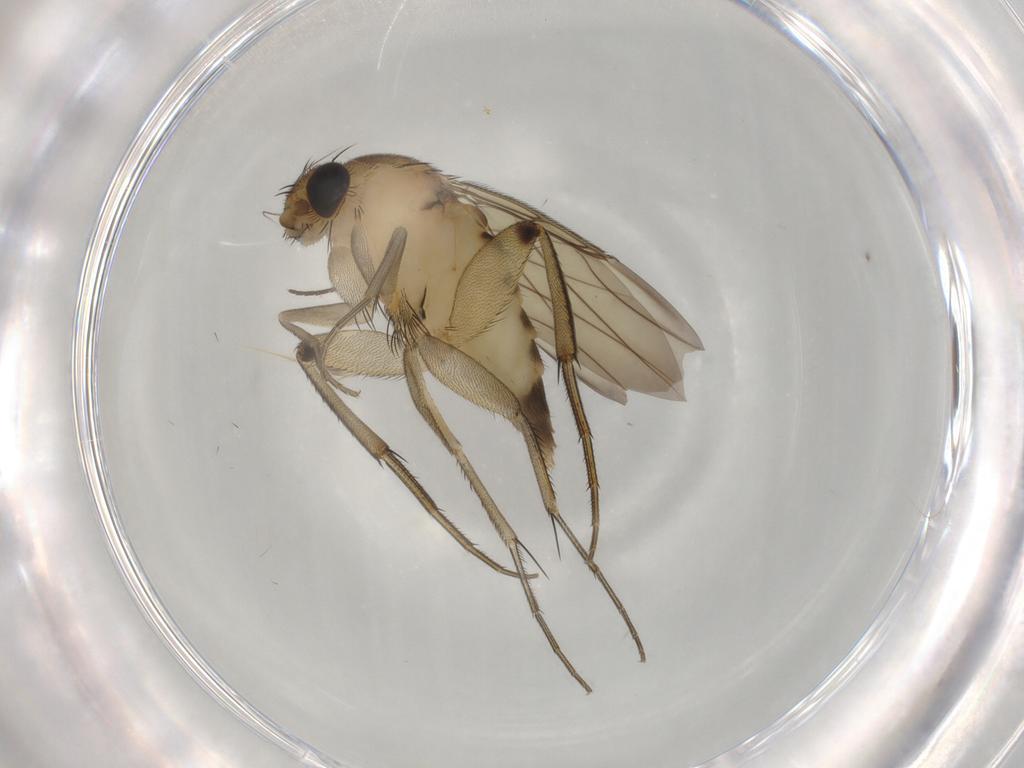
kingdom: Animalia
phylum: Arthropoda
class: Insecta
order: Diptera
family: Phoridae
